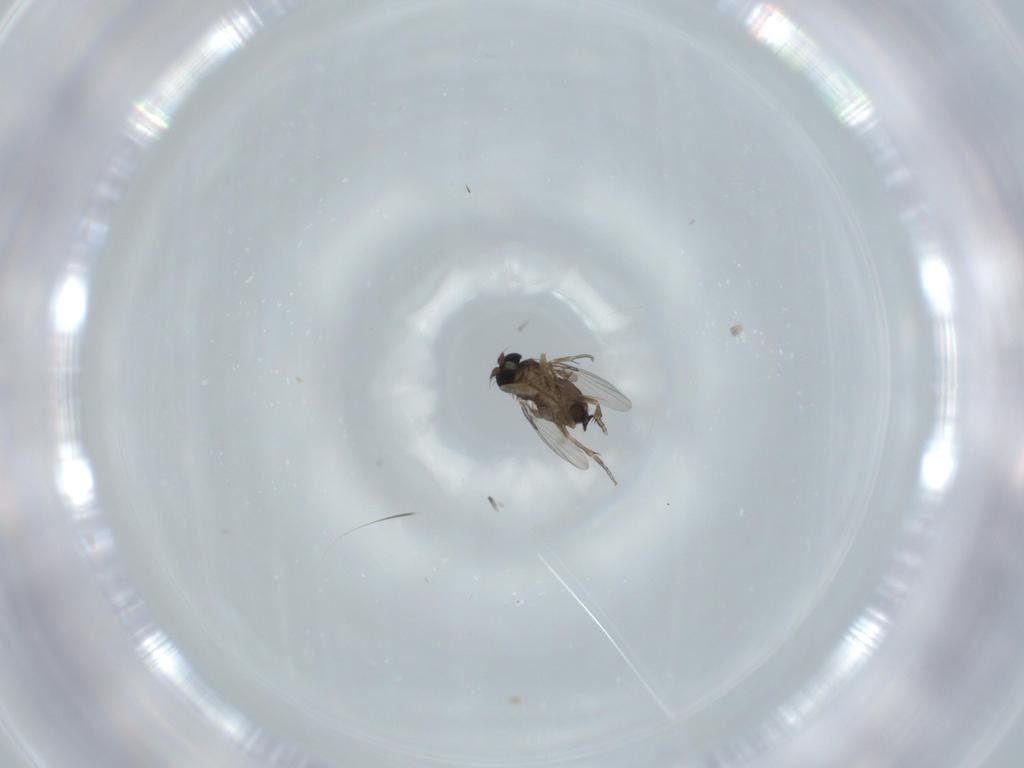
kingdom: Animalia
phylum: Arthropoda
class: Insecta
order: Diptera
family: Phoridae
